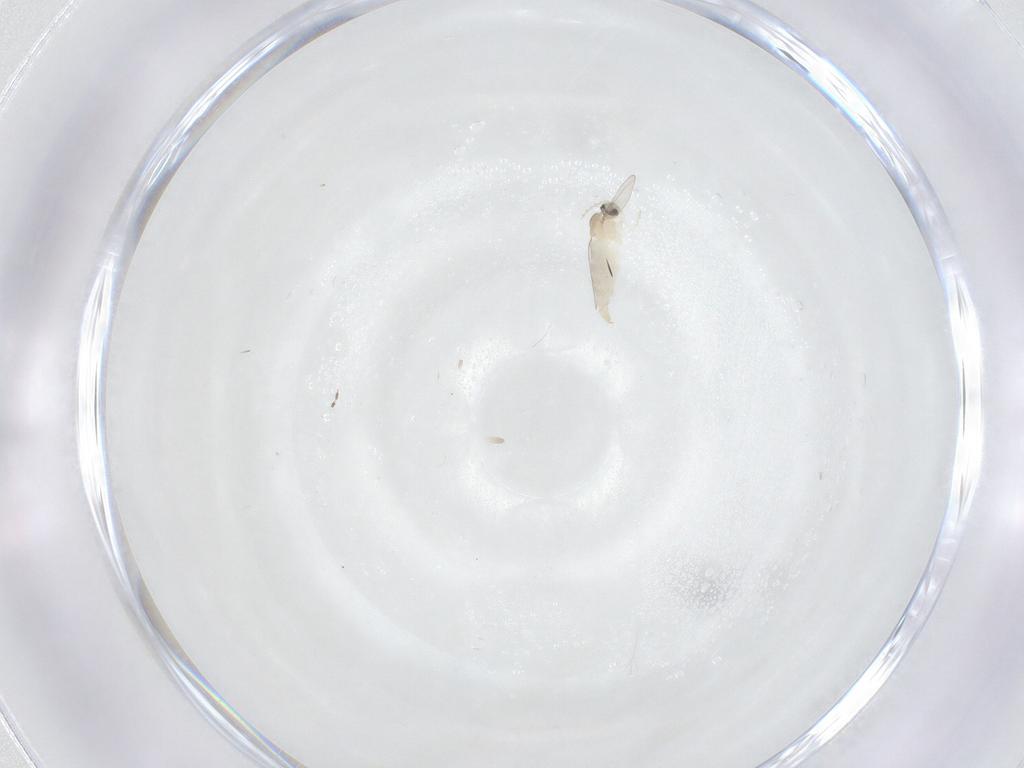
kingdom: Animalia
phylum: Arthropoda
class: Insecta
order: Diptera
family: Cecidomyiidae
